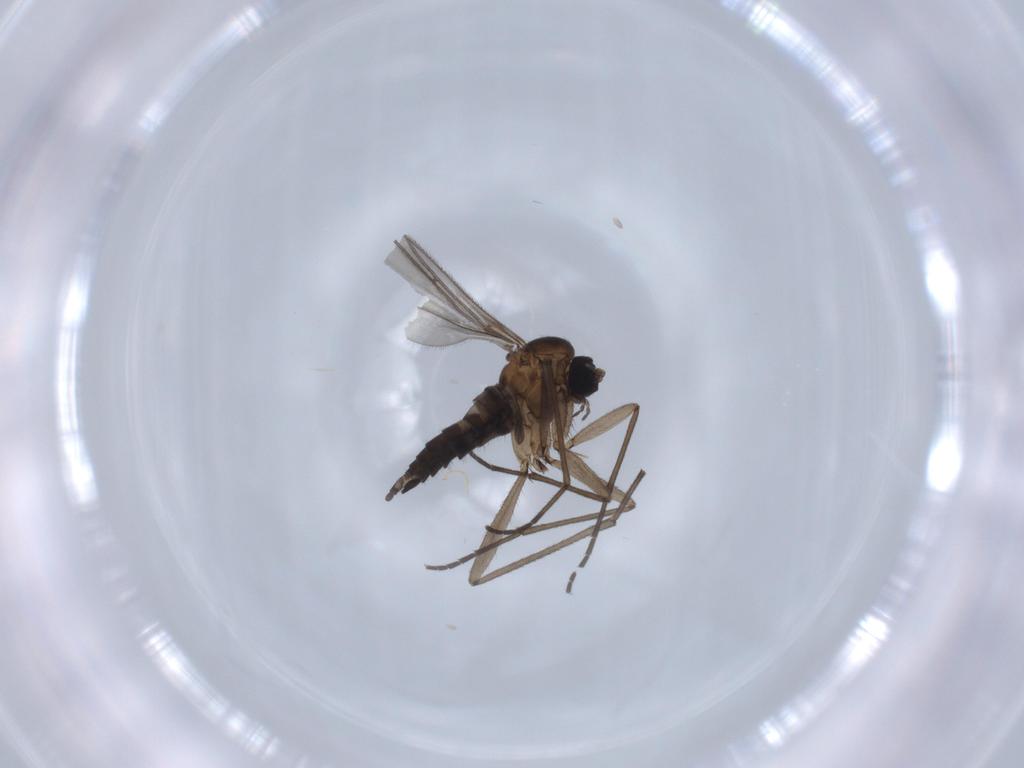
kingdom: Animalia
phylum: Arthropoda
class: Insecta
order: Diptera
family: Sciaridae
